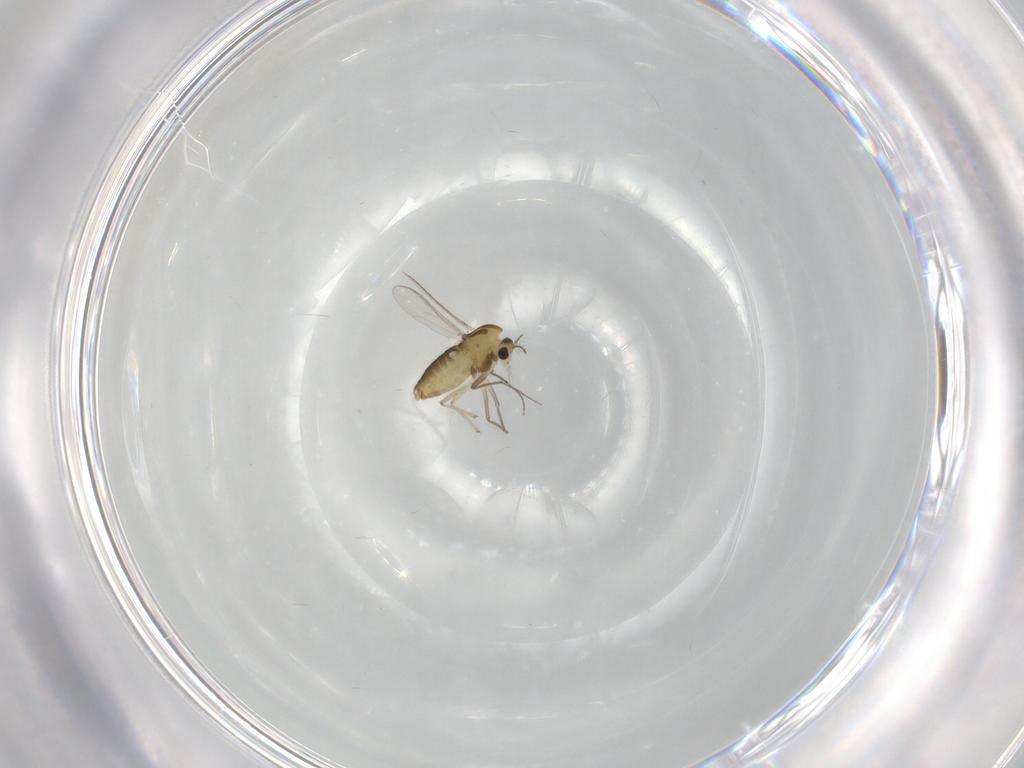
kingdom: Animalia
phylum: Arthropoda
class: Insecta
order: Diptera
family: Chironomidae
